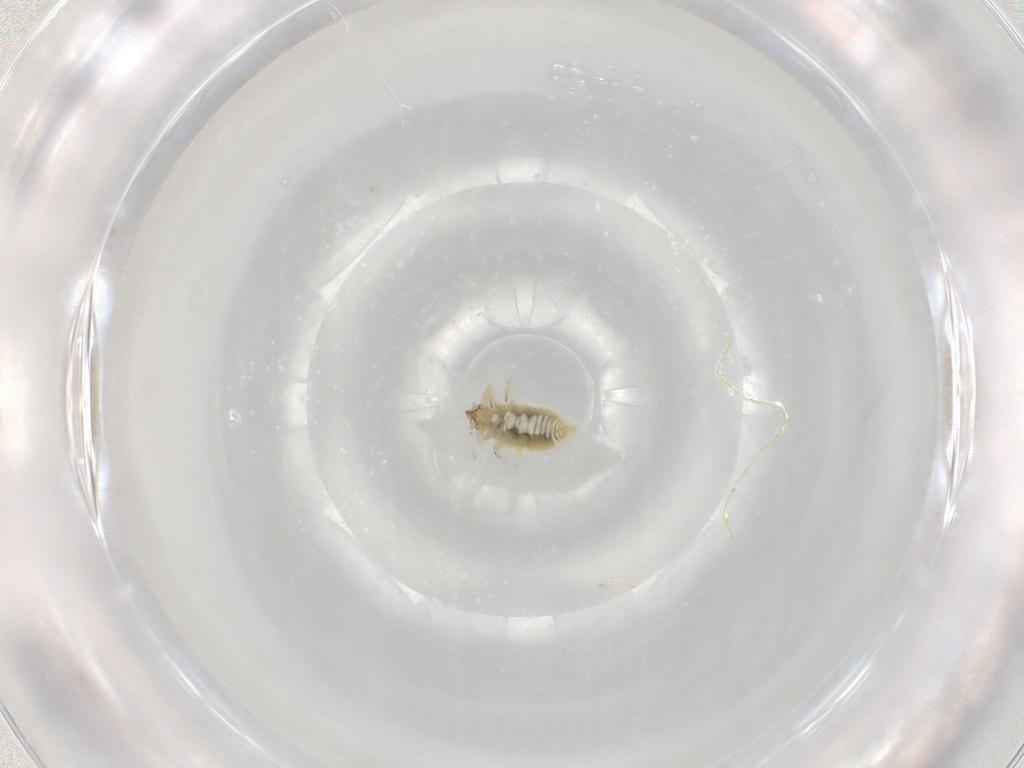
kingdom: Animalia
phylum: Arthropoda
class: Insecta
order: Neuroptera
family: Coniopterygidae
